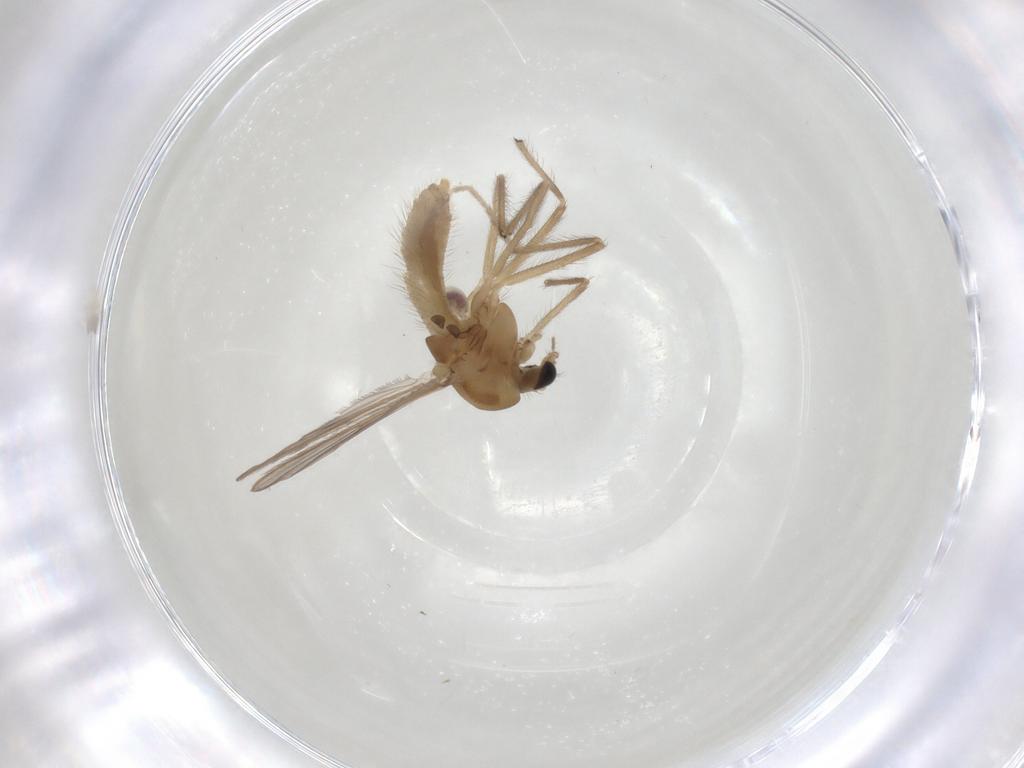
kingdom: Animalia
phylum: Arthropoda
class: Insecta
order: Diptera
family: Chironomidae
